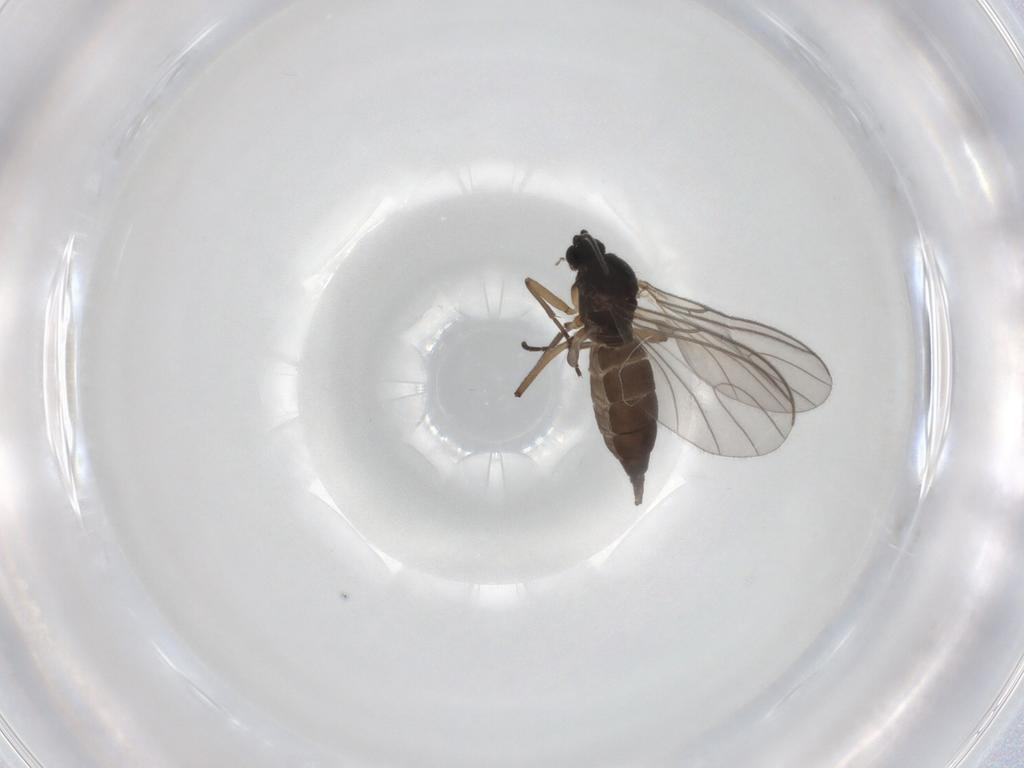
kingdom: Animalia
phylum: Arthropoda
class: Insecta
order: Diptera
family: Sciaridae
